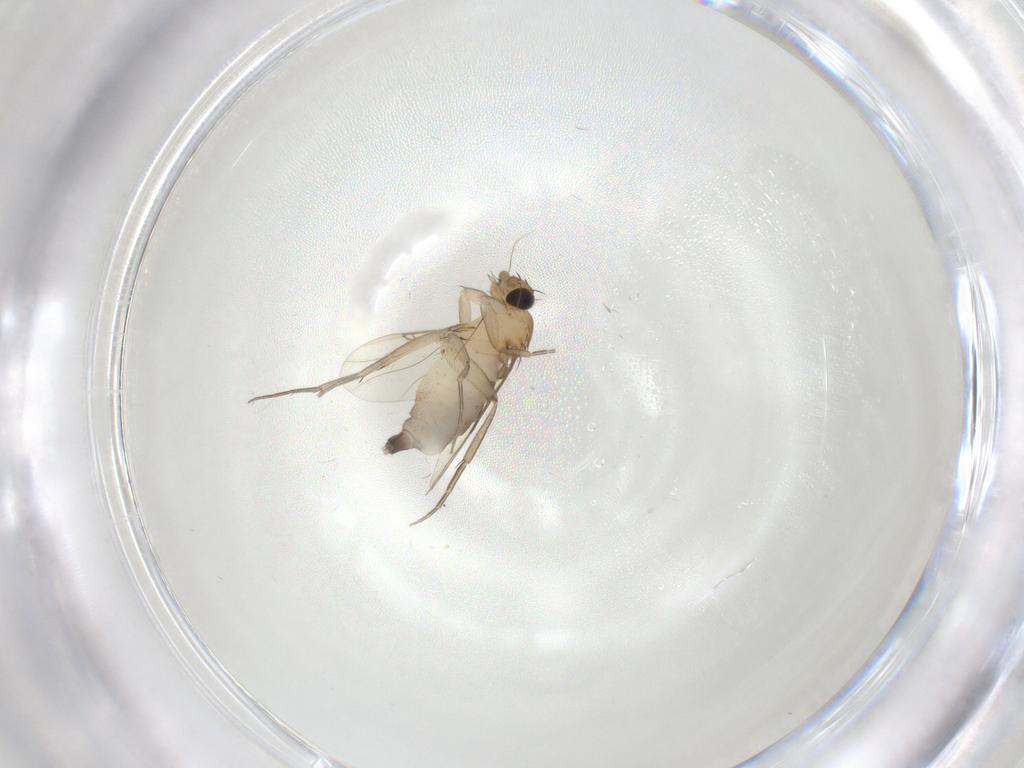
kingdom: Animalia
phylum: Arthropoda
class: Insecta
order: Diptera
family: Phoridae
